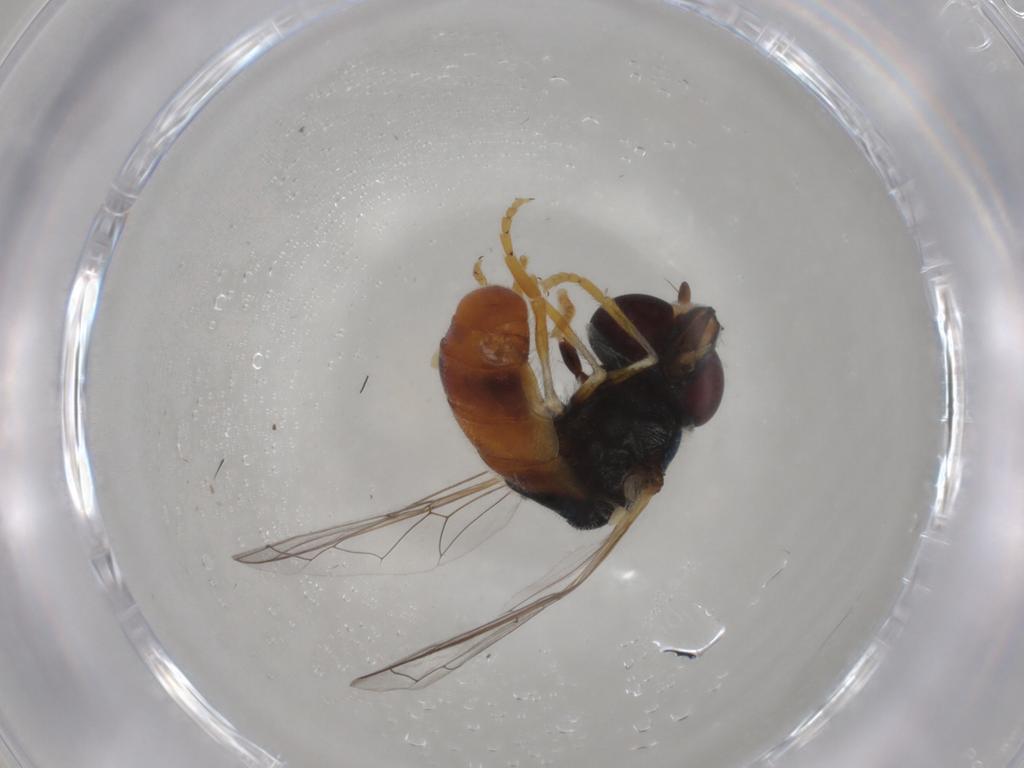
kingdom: Animalia
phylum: Arthropoda
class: Insecta
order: Diptera
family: Syrphidae
